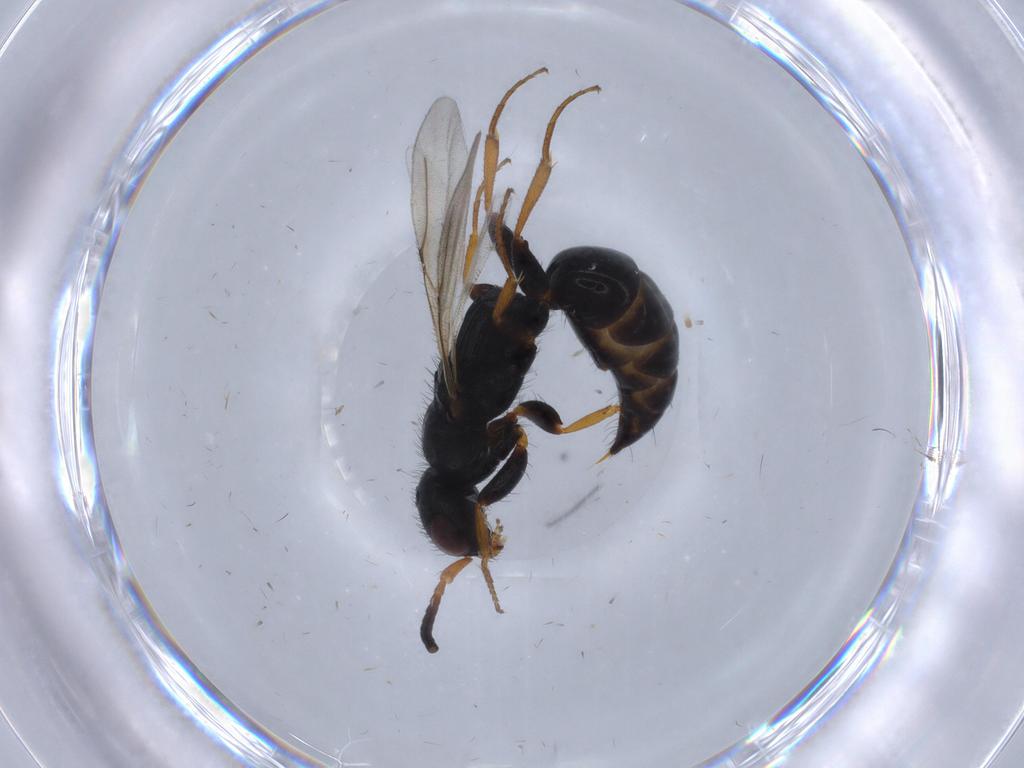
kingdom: Animalia
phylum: Arthropoda
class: Insecta
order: Hymenoptera
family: Bethylidae
